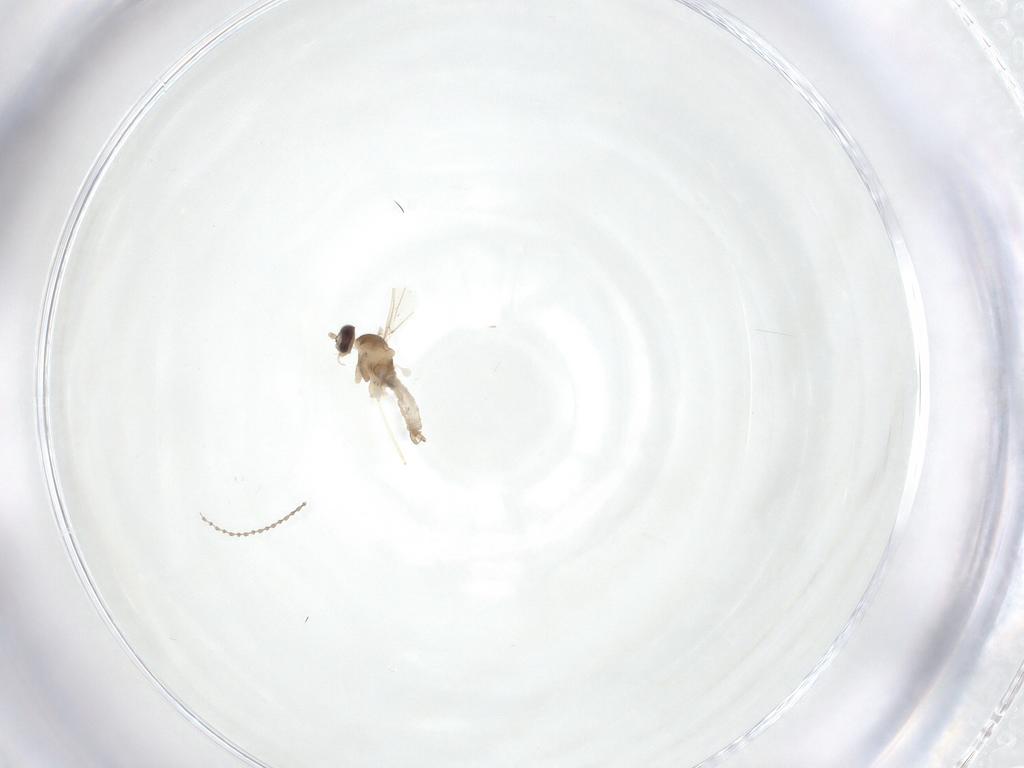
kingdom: Animalia
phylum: Arthropoda
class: Insecta
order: Diptera
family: Cecidomyiidae
